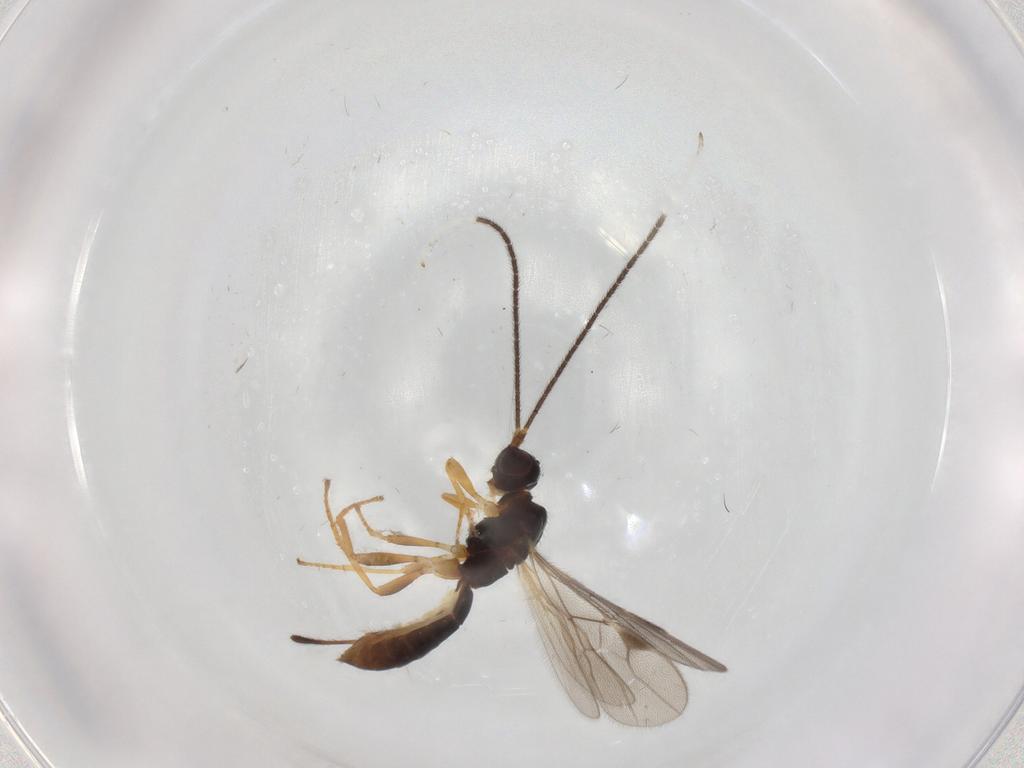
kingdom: Animalia
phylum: Arthropoda
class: Insecta
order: Hymenoptera
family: Formicidae
